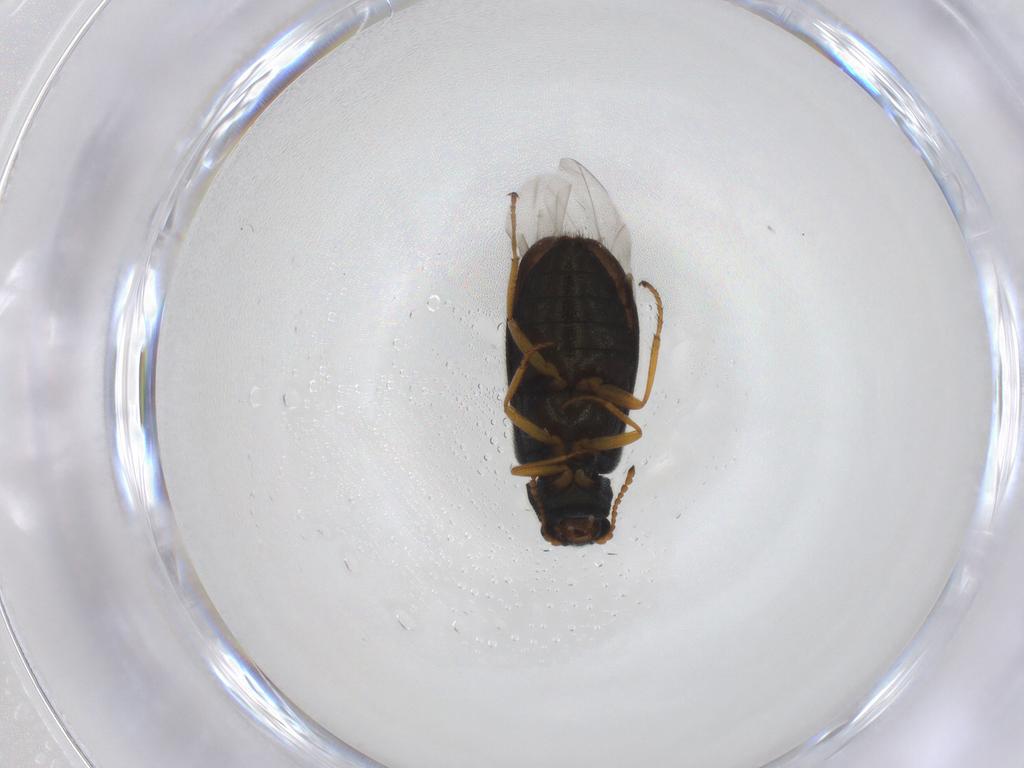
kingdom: Animalia
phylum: Arthropoda
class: Insecta
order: Coleoptera
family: Melyridae
